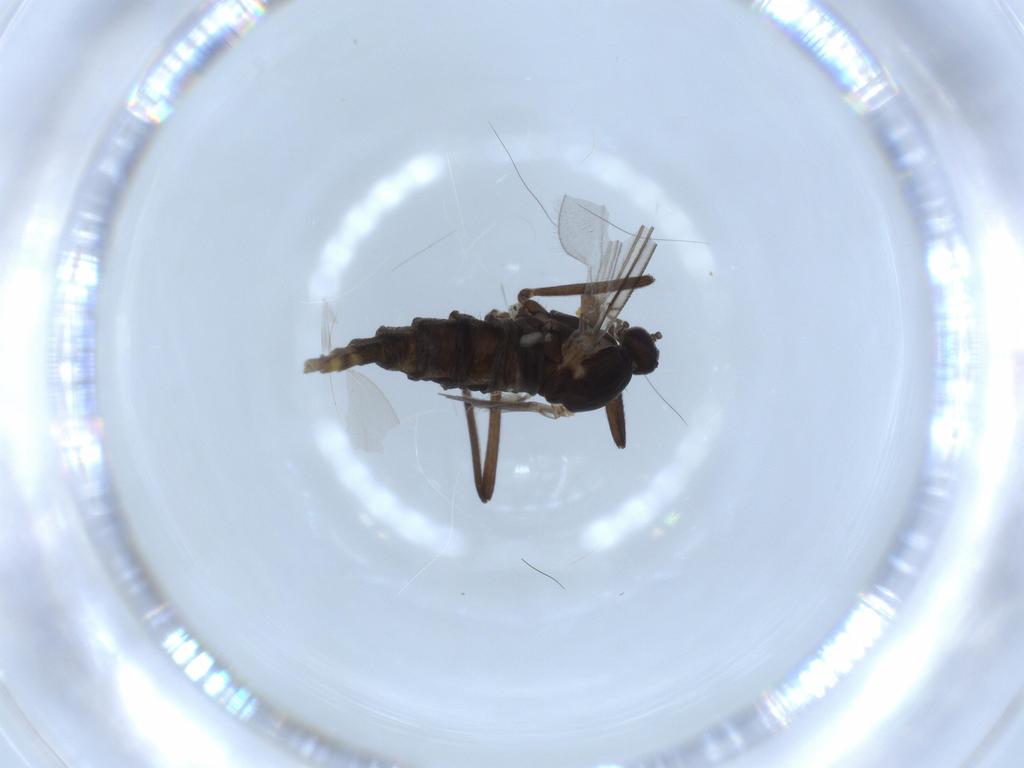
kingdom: Animalia
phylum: Arthropoda
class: Insecta
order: Diptera
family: Cecidomyiidae
